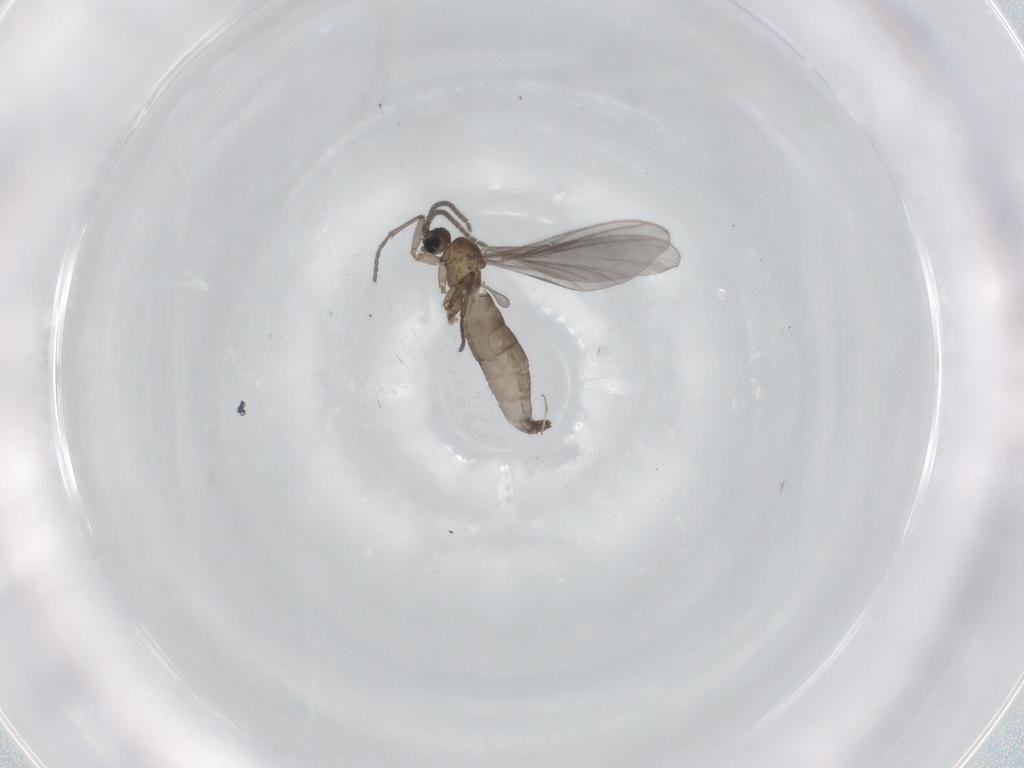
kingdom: Animalia
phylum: Arthropoda
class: Insecta
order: Diptera
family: Sciaridae
